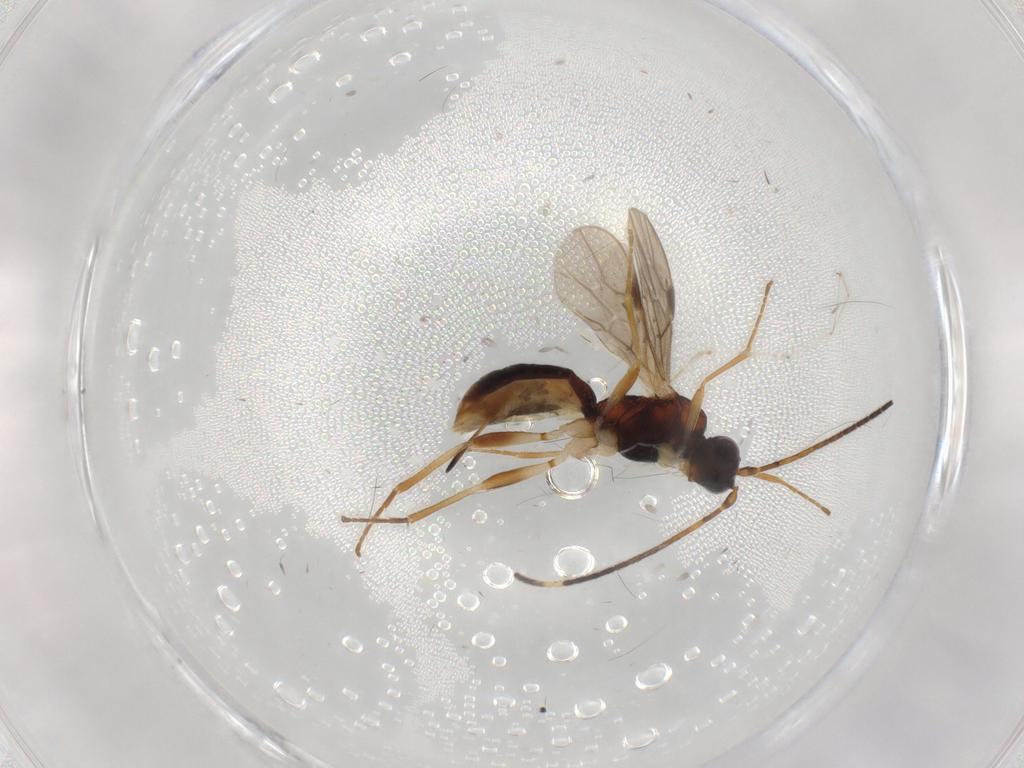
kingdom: Animalia
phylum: Arthropoda
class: Insecta
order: Hymenoptera
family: Braconidae
